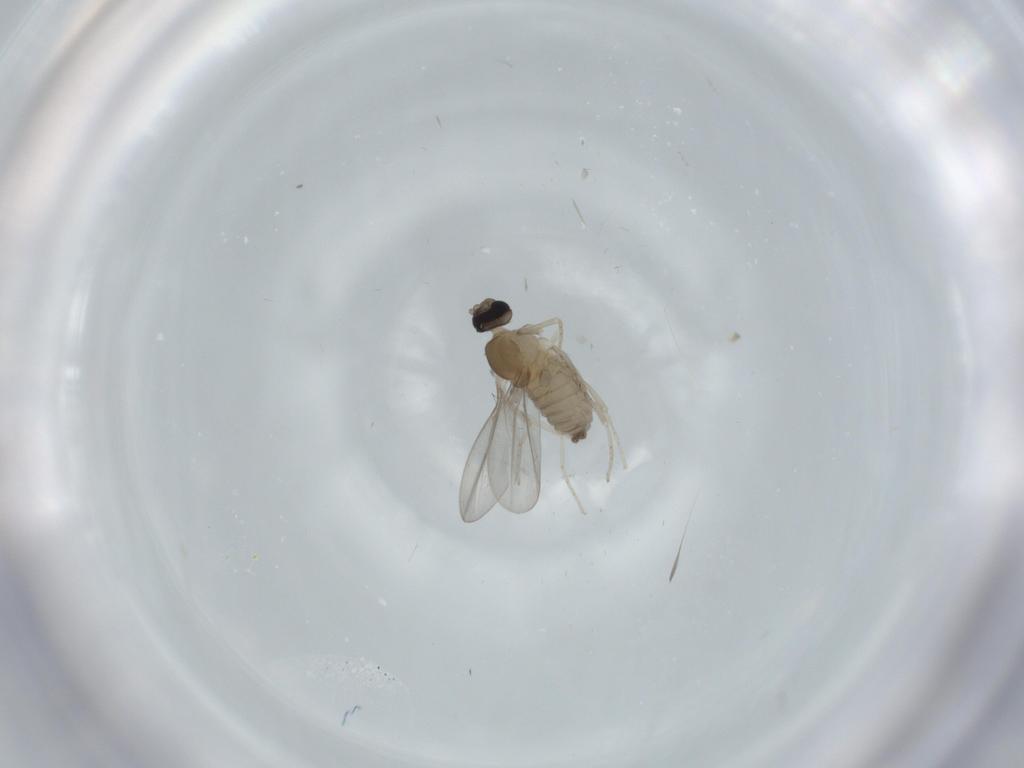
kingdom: Animalia
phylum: Arthropoda
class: Insecta
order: Diptera
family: Cecidomyiidae
